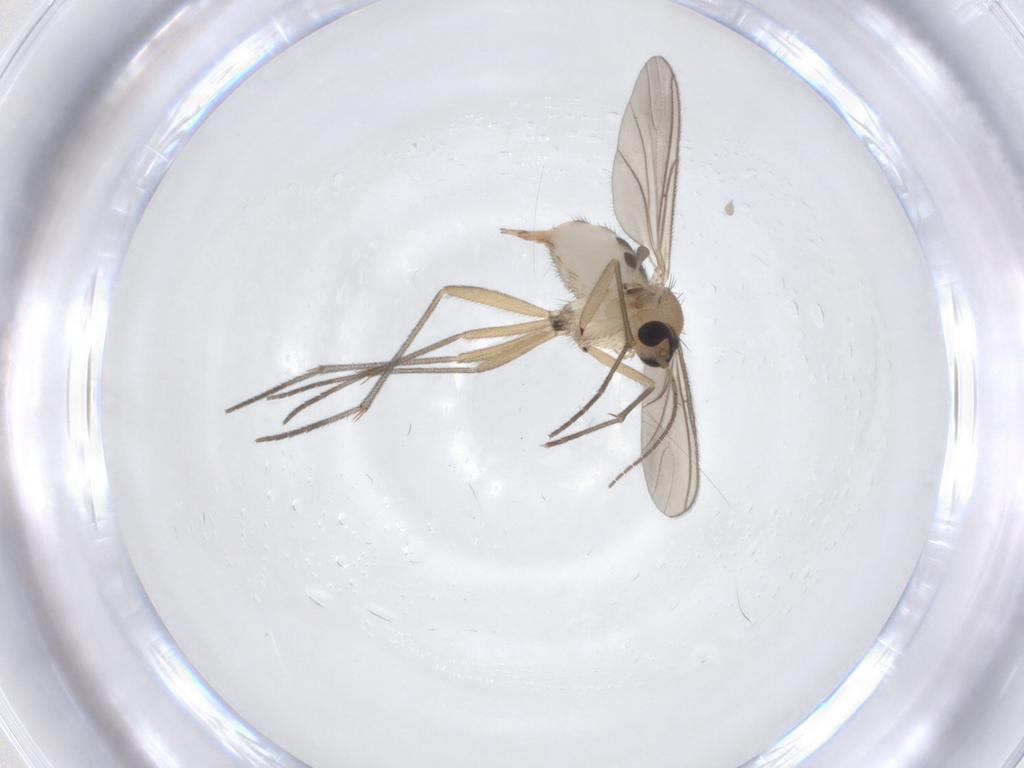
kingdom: Animalia
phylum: Arthropoda
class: Insecta
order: Diptera
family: Sciaridae
